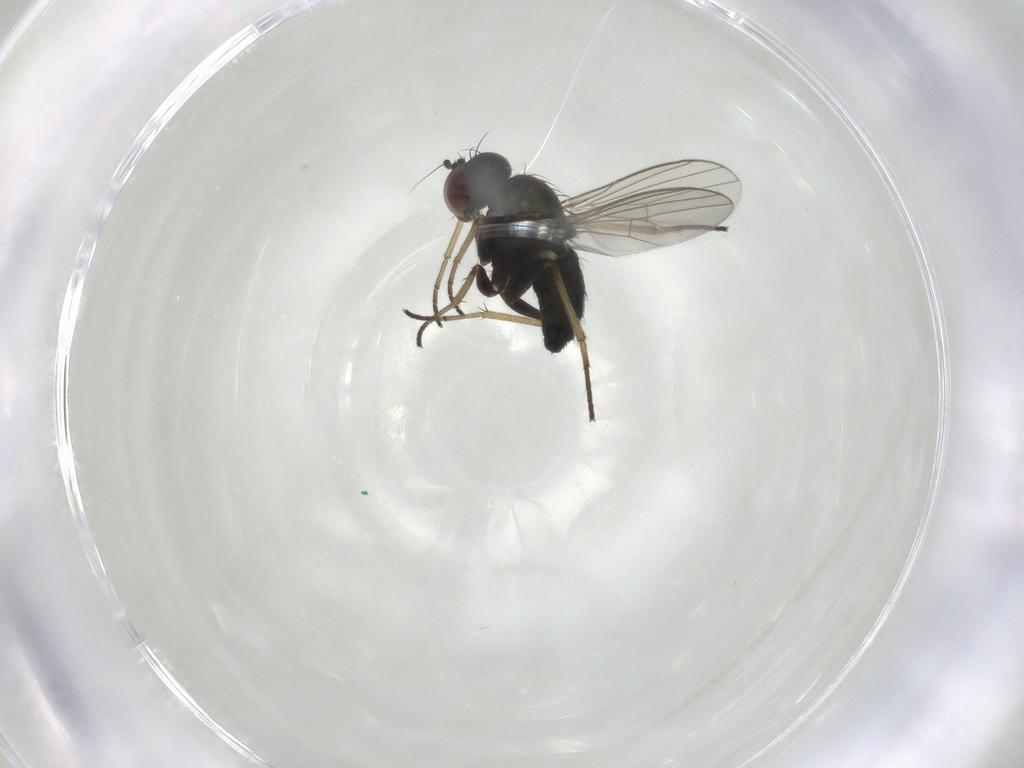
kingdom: Animalia
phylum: Arthropoda
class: Insecta
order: Diptera
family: Dolichopodidae
